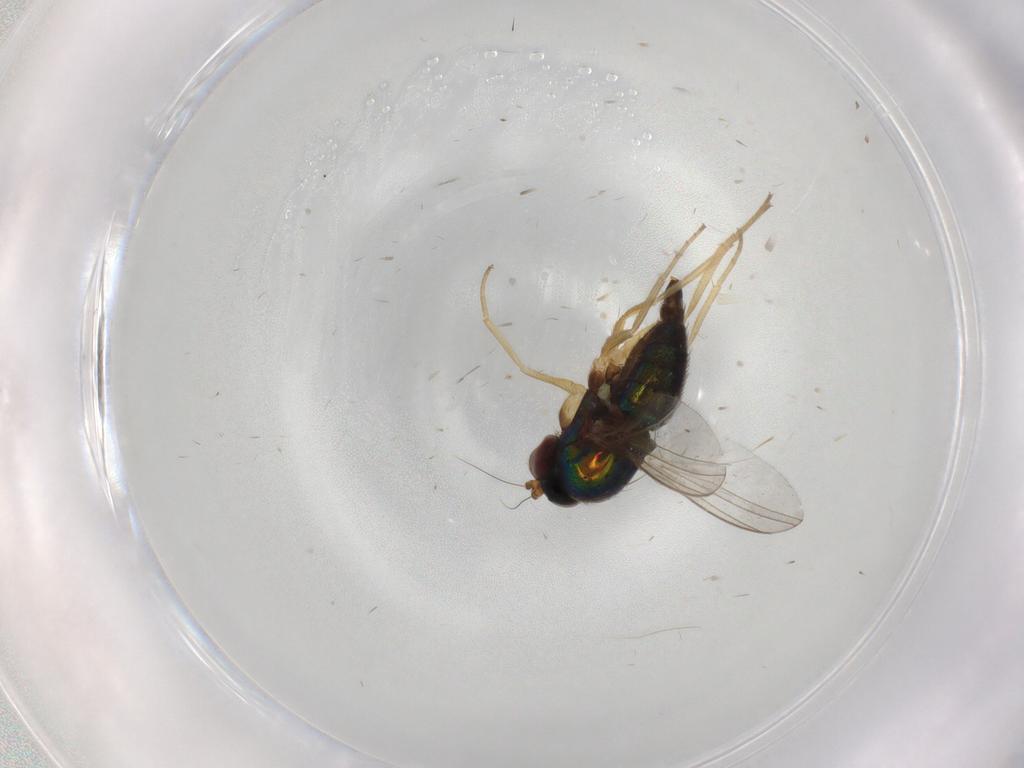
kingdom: Animalia
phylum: Arthropoda
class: Insecta
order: Diptera
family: Dolichopodidae
